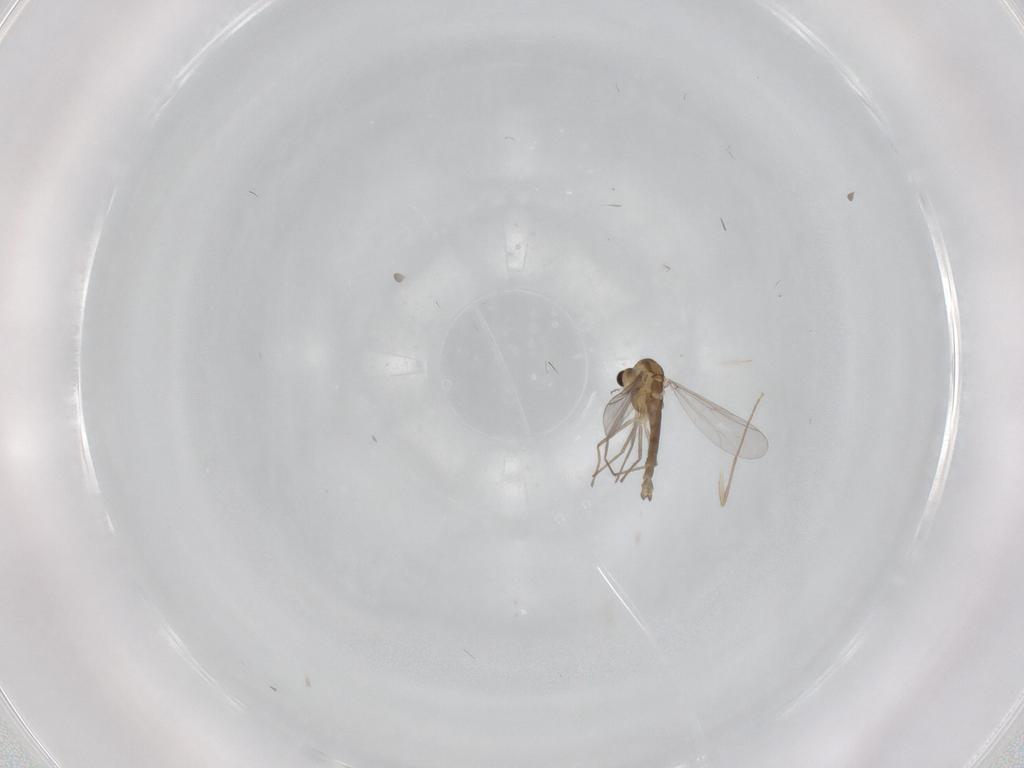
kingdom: Animalia
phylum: Arthropoda
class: Insecta
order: Diptera
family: Chironomidae
